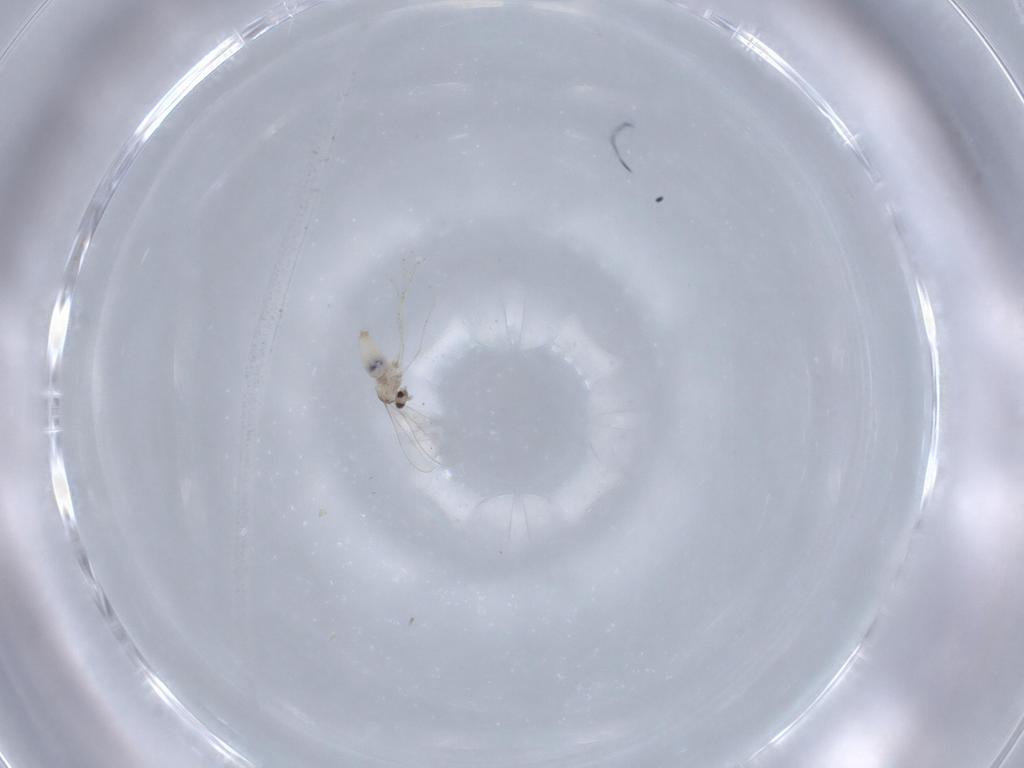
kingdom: Animalia
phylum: Arthropoda
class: Insecta
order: Diptera
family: Cecidomyiidae
